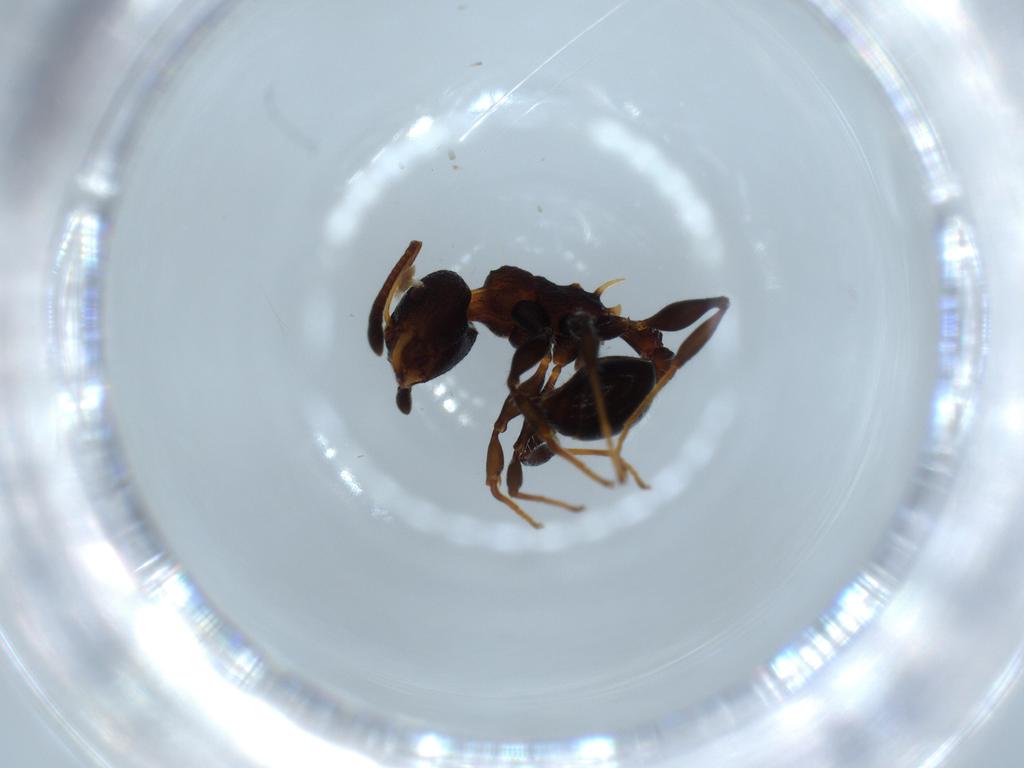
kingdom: Animalia
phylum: Arthropoda
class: Insecta
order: Hymenoptera
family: Formicidae
